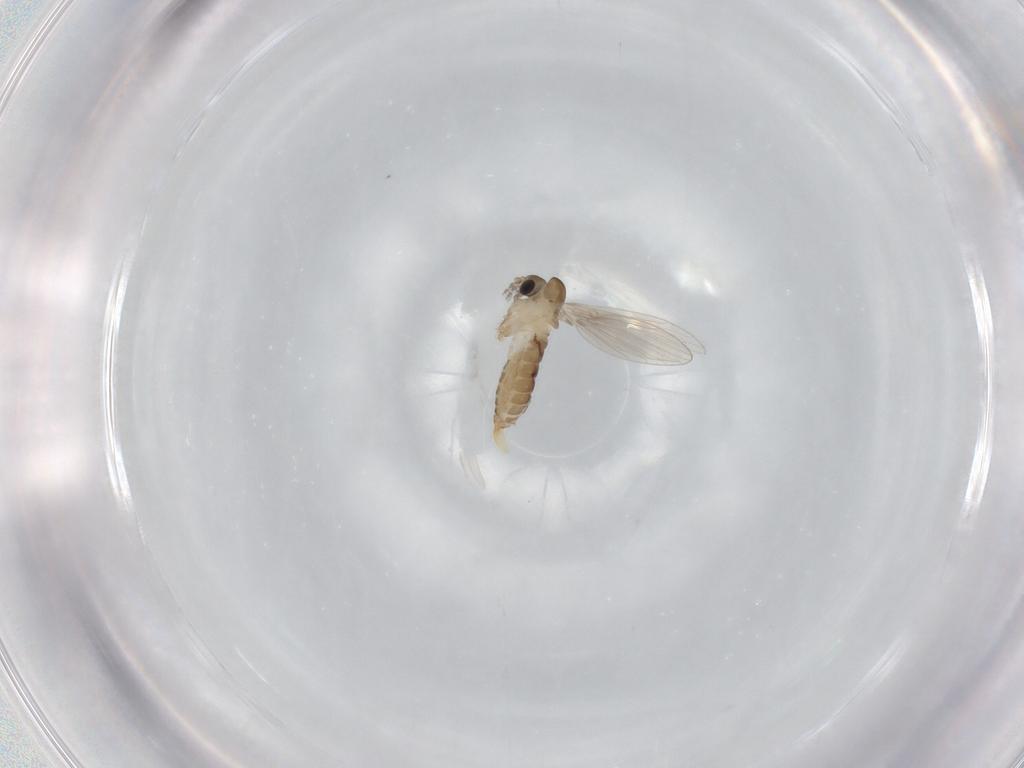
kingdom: Animalia
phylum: Arthropoda
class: Insecta
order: Diptera
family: Psychodidae
